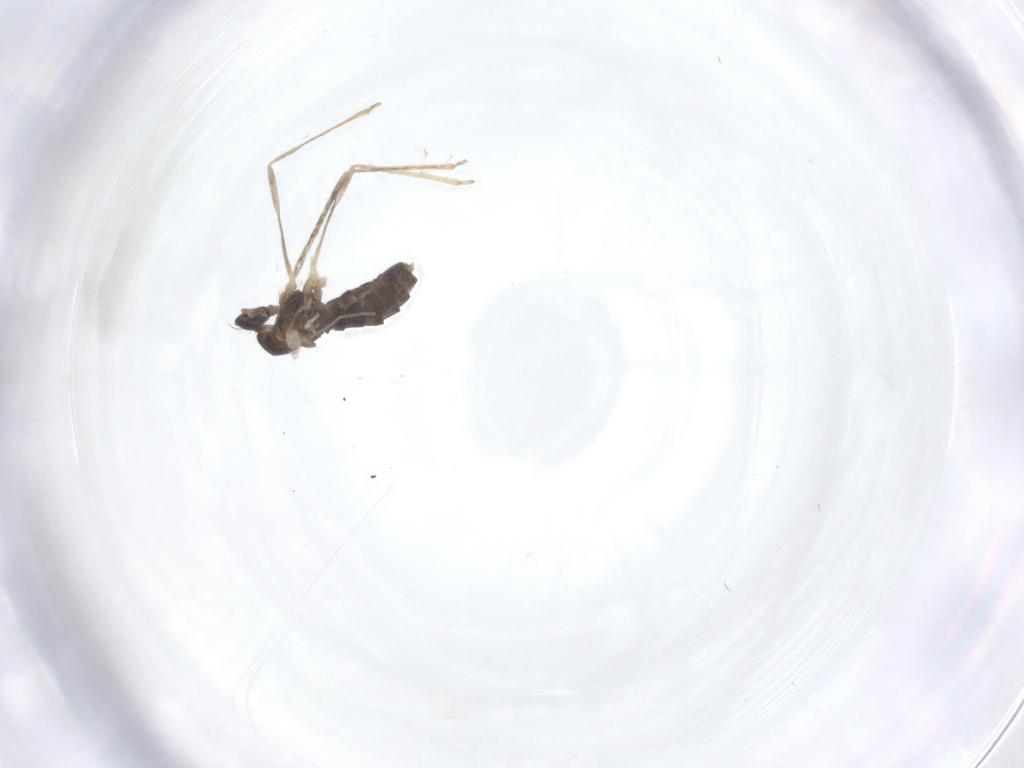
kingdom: Animalia
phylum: Arthropoda
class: Insecta
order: Diptera
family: Cecidomyiidae
